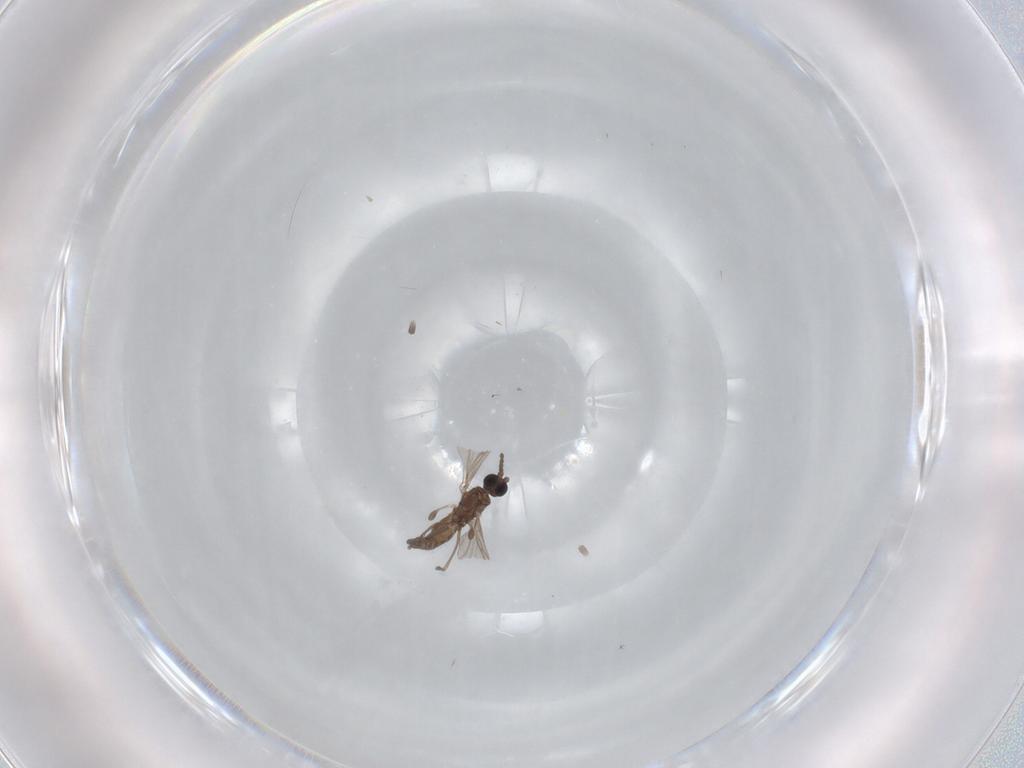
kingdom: Animalia
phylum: Arthropoda
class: Insecta
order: Diptera
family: Sciaridae
